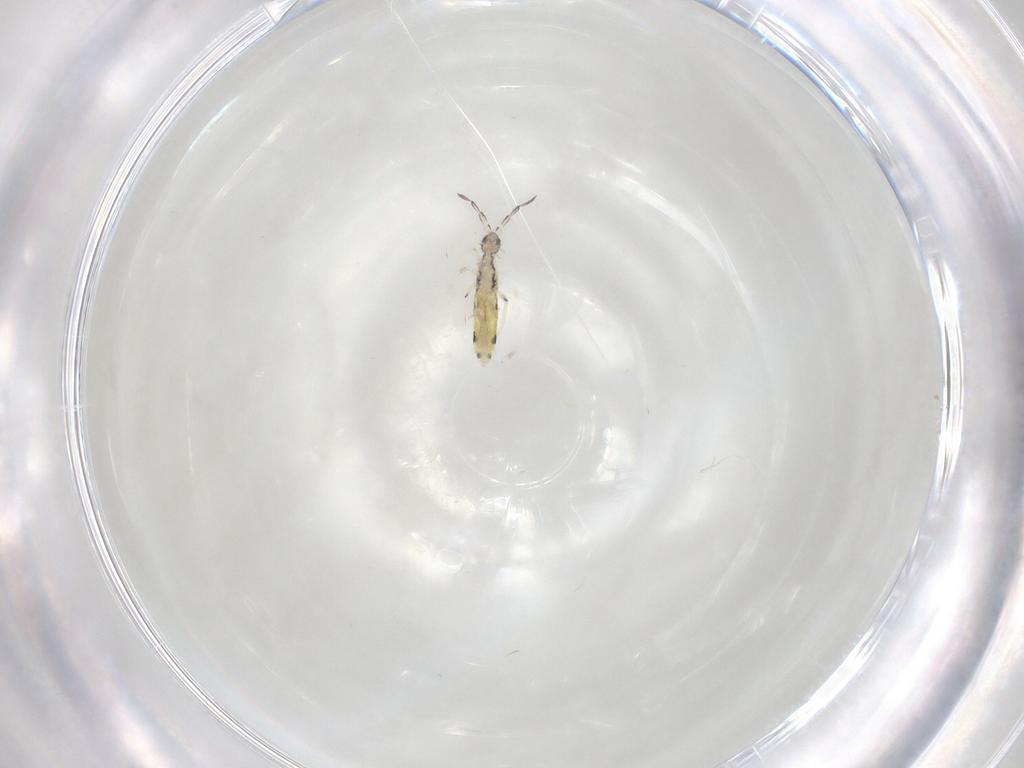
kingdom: Animalia
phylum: Arthropoda
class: Collembola
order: Entomobryomorpha
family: Entomobryidae
